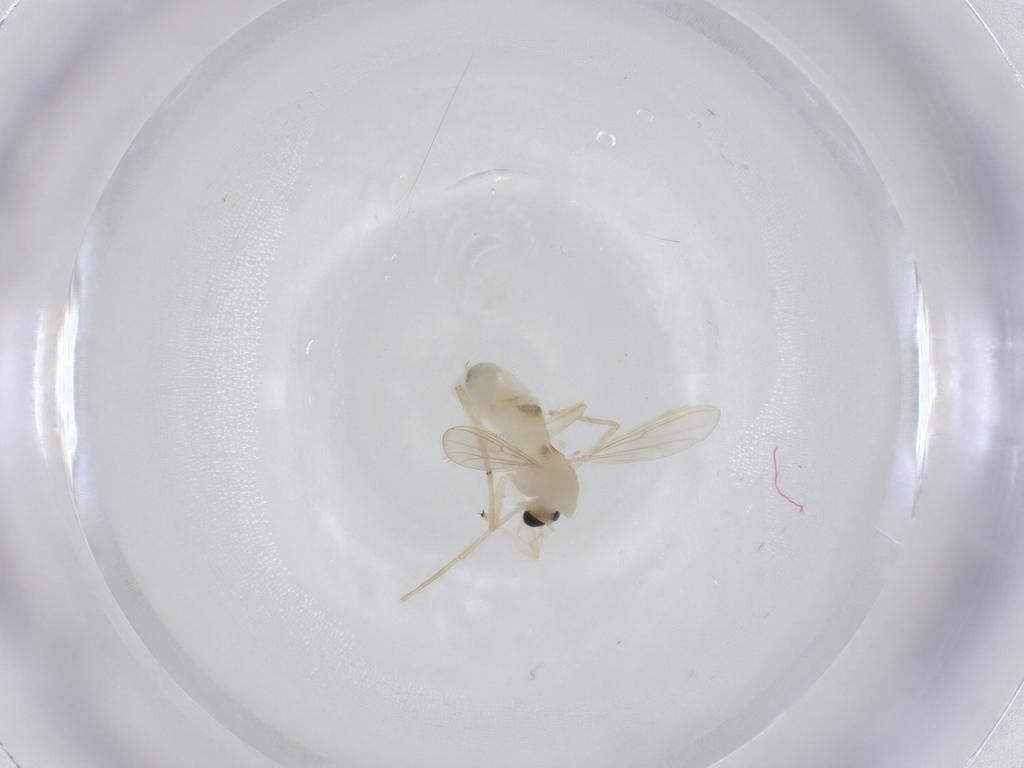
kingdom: Animalia
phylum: Arthropoda
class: Insecta
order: Diptera
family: Chironomidae
